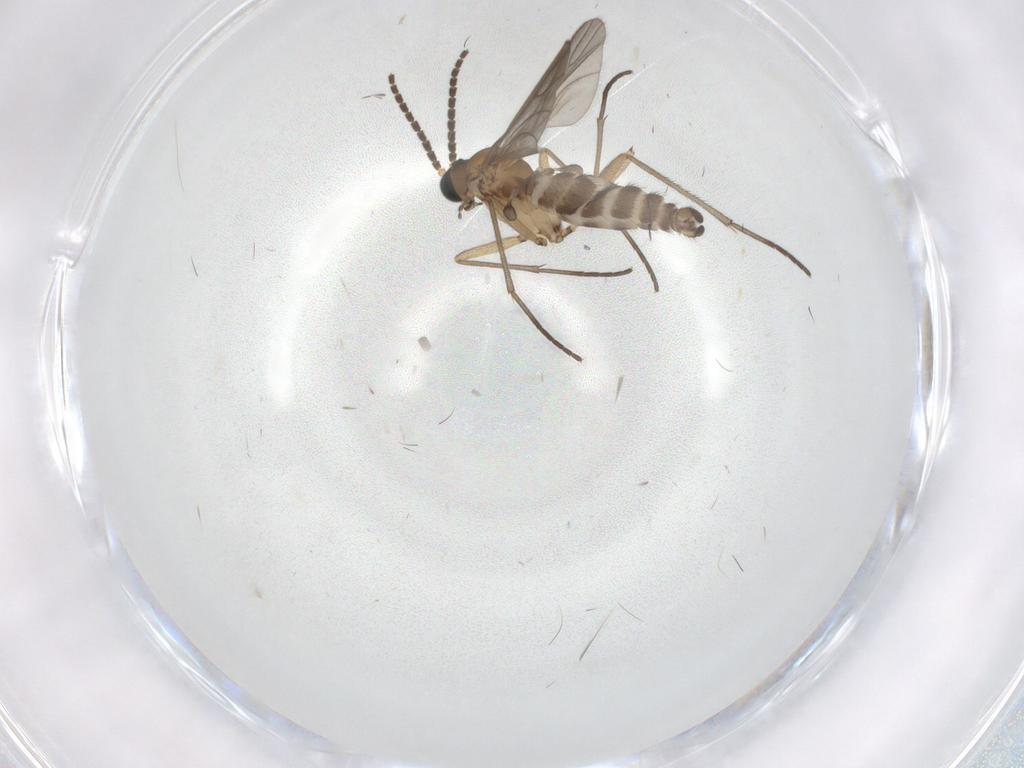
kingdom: Animalia
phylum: Arthropoda
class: Insecta
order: Diptera
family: Sciaridae
